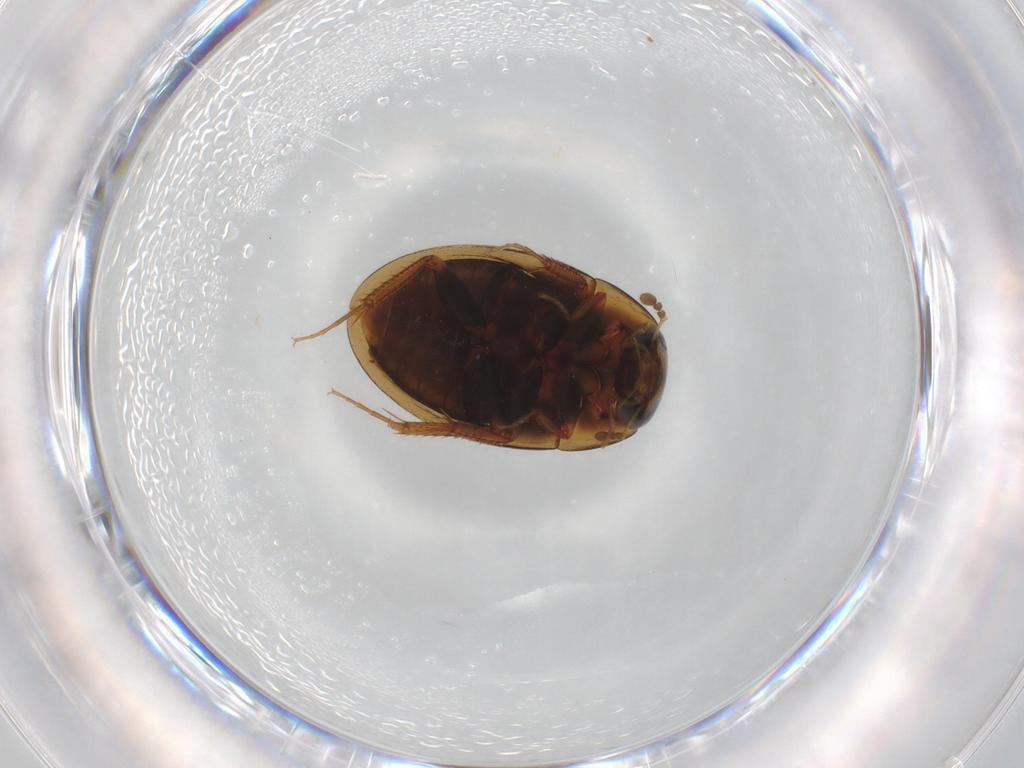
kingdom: Animalia
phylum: Arthropoda
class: Insecta
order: Coleoptera
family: Hydrophilidae
